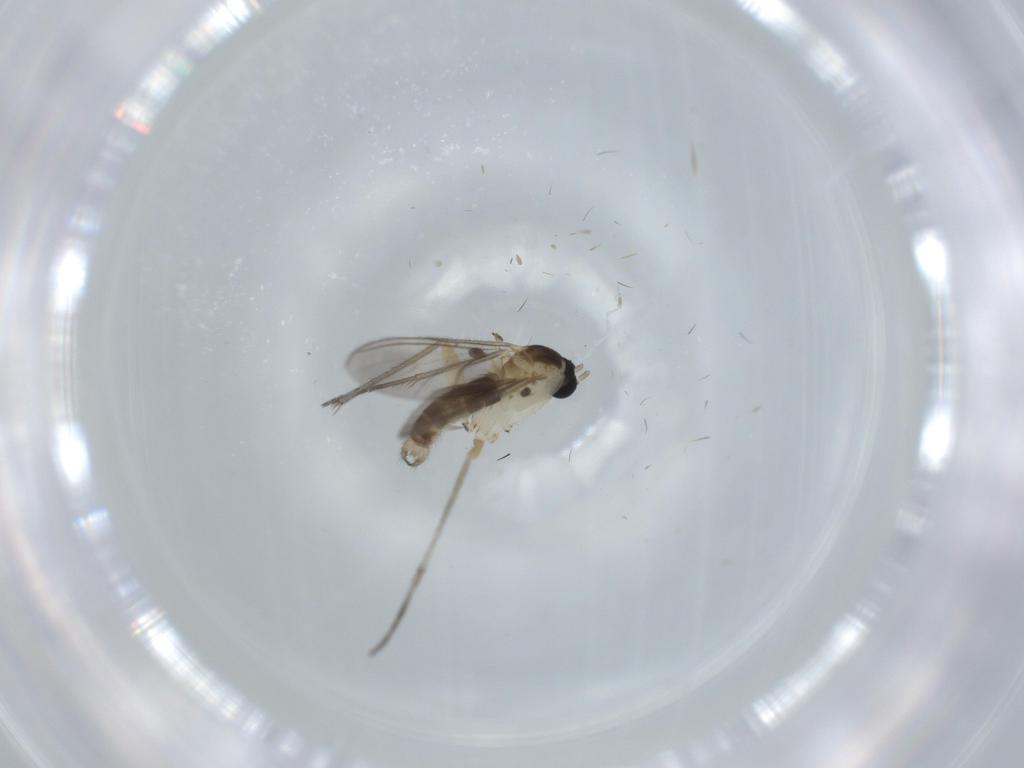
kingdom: Animalia
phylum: Arthropoda
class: Insecta
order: Diptera
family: Sciaridae
